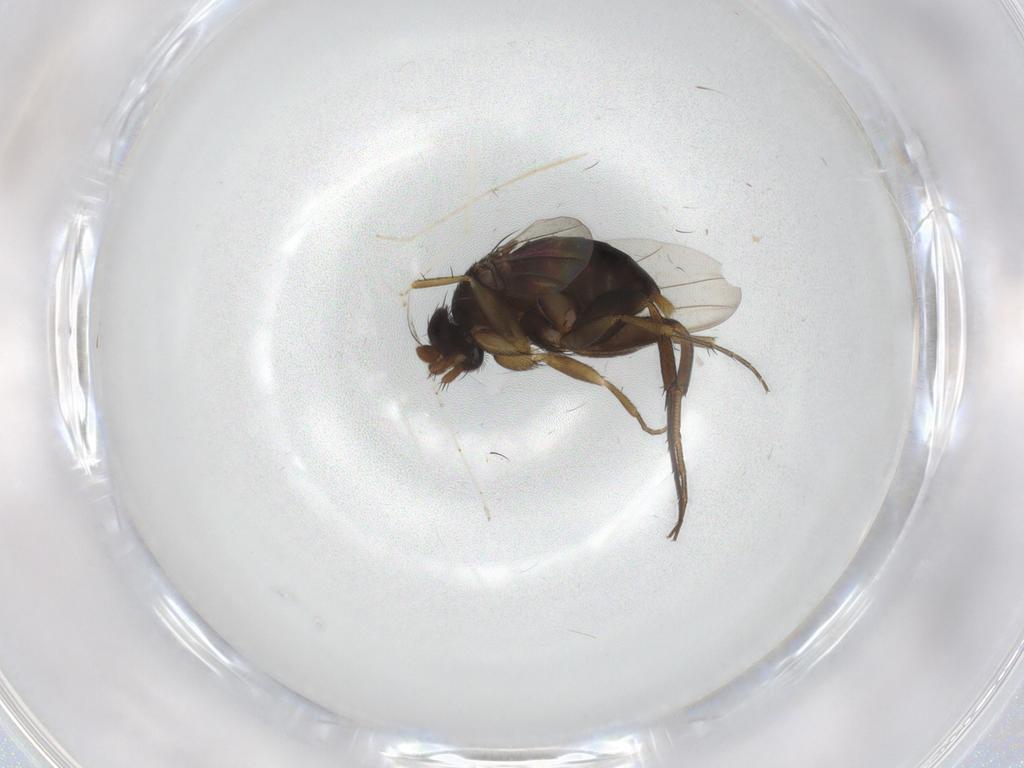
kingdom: Animalia
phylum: Arthropoda
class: Insecta
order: Diptera
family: Phoridae
